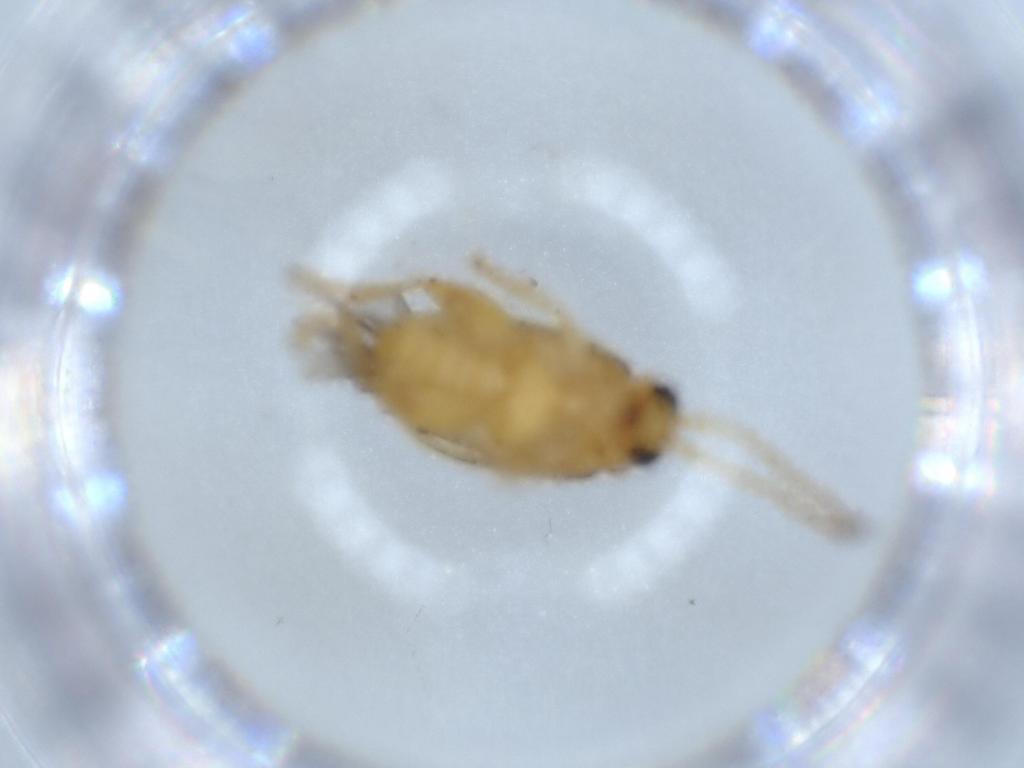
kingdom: Animalia
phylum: Arthropoda
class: Insecta
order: Coleoptera
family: Chrysomelidae
